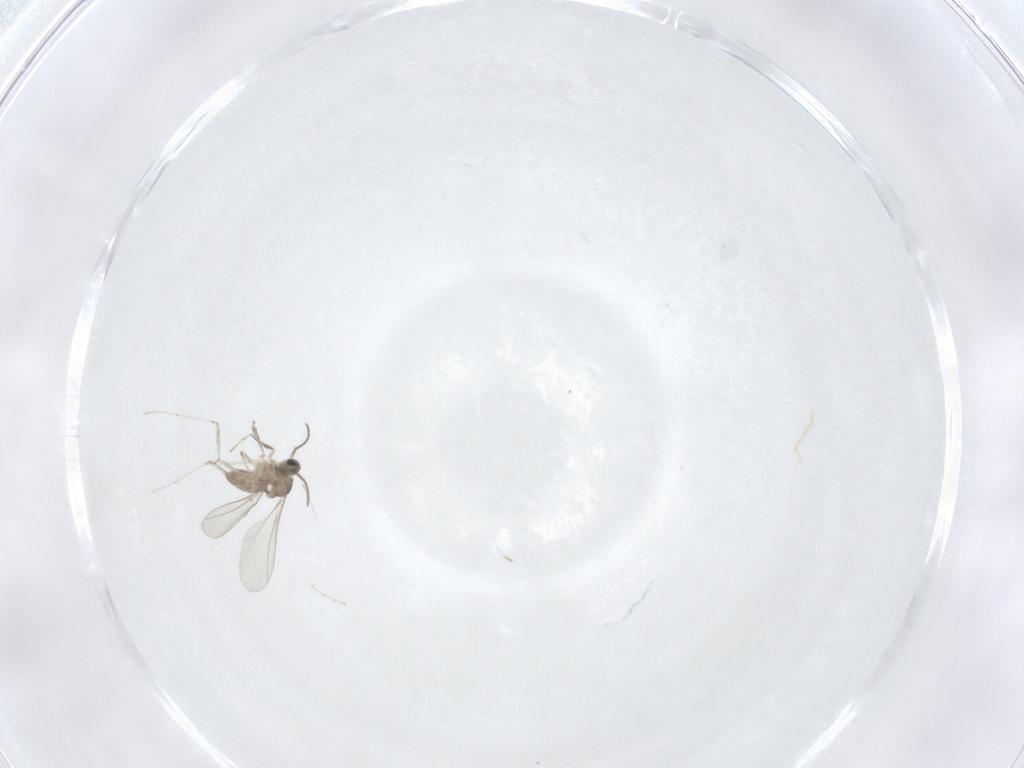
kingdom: Animalia
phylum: Arthropoda
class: Insecta
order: Diptera
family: Cecidomyiidae
